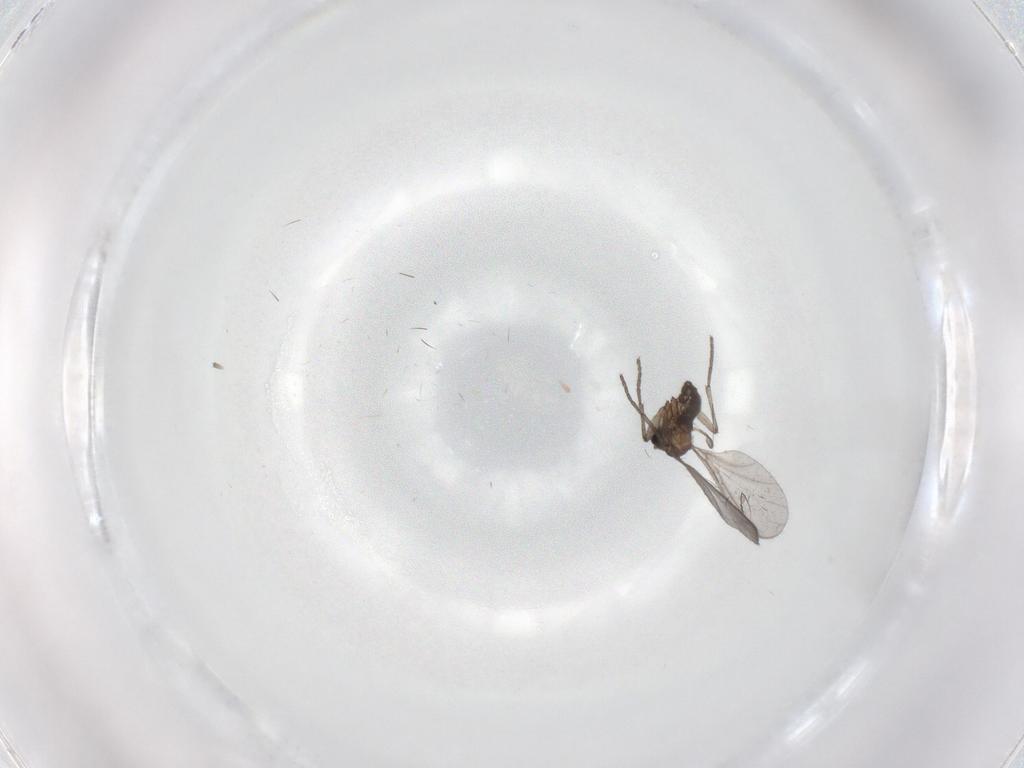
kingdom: Animalia
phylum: Arthropoda
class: Insecta
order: Diptera
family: Sciaridae
